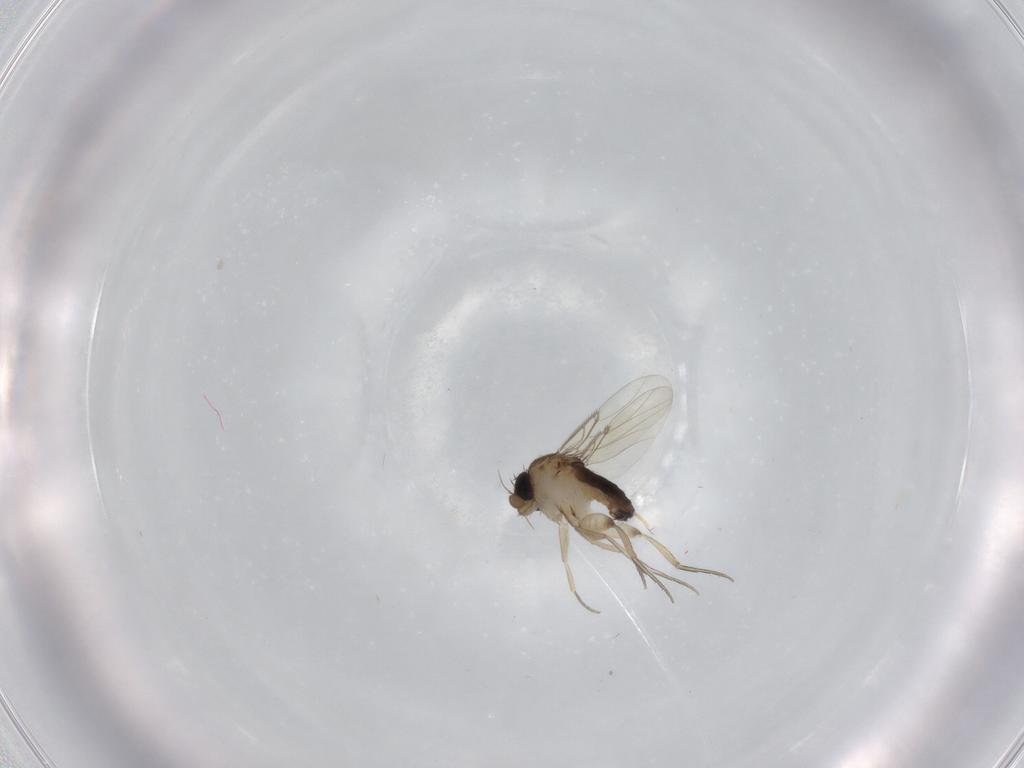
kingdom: Animalia
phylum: Arthropoda
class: Insecta
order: Diptera
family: Phoridae
